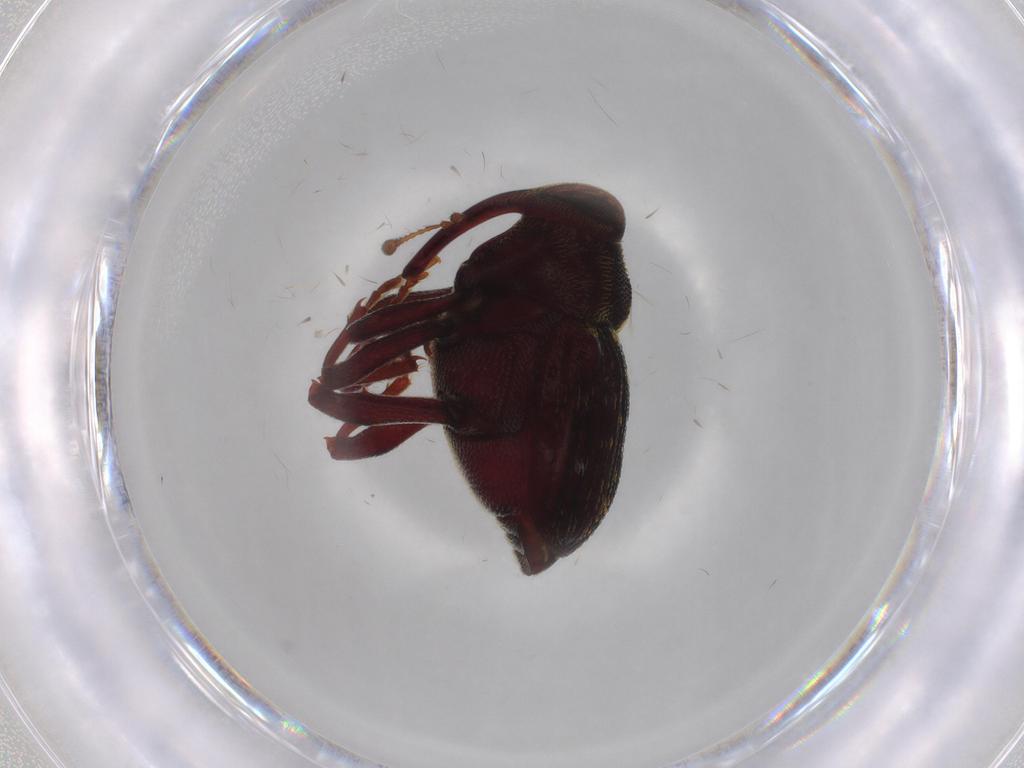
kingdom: Animalia
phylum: Arthropoda
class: Insecta
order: Coleoptera
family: Curculionidae
